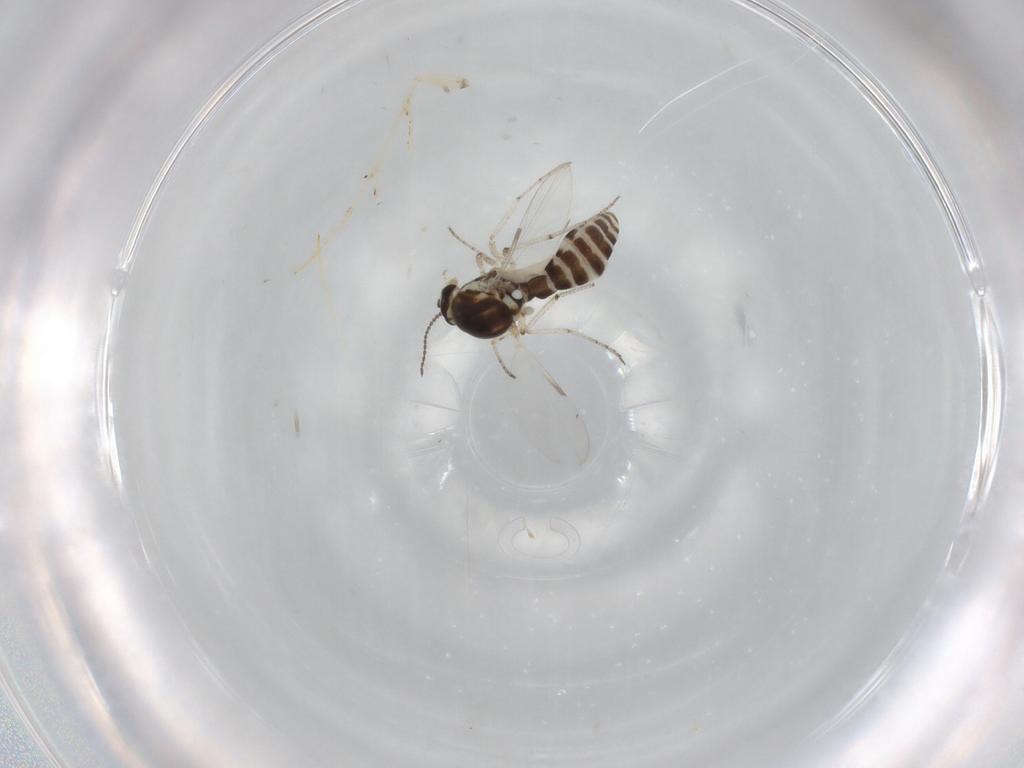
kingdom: Animalia
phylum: Arthropoda
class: Insecta
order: Diptera
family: Ceratopogonidae
